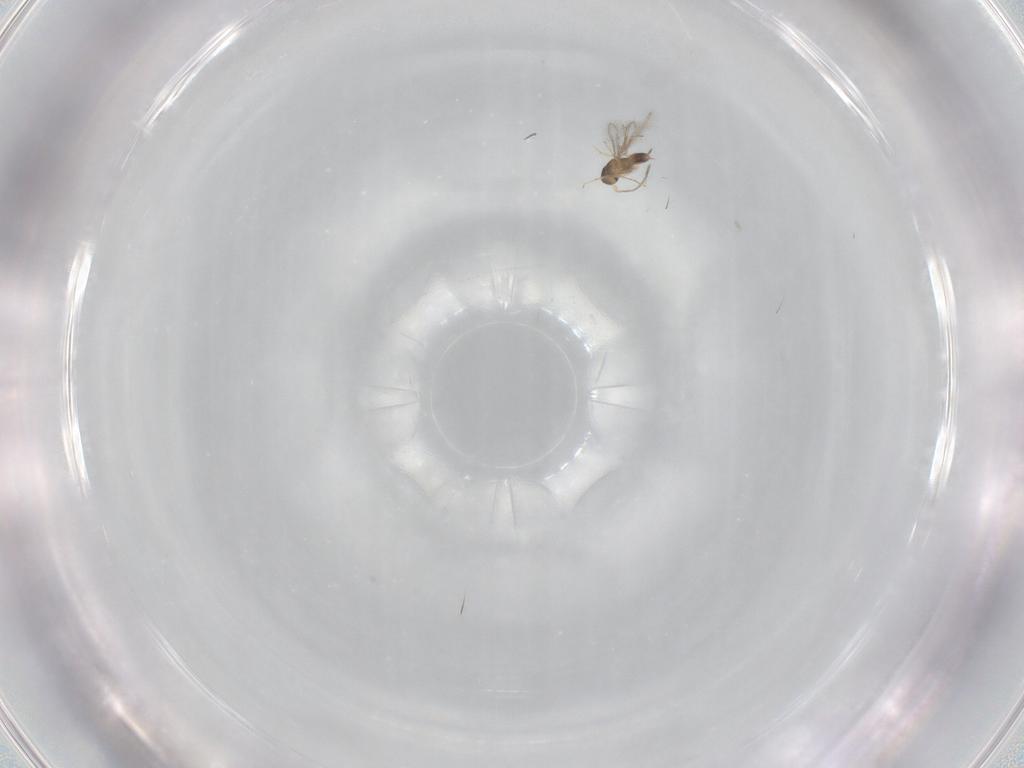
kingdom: Animalia
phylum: Arthropoda
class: Insecta
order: Hymenoptera
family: Mymaridae
